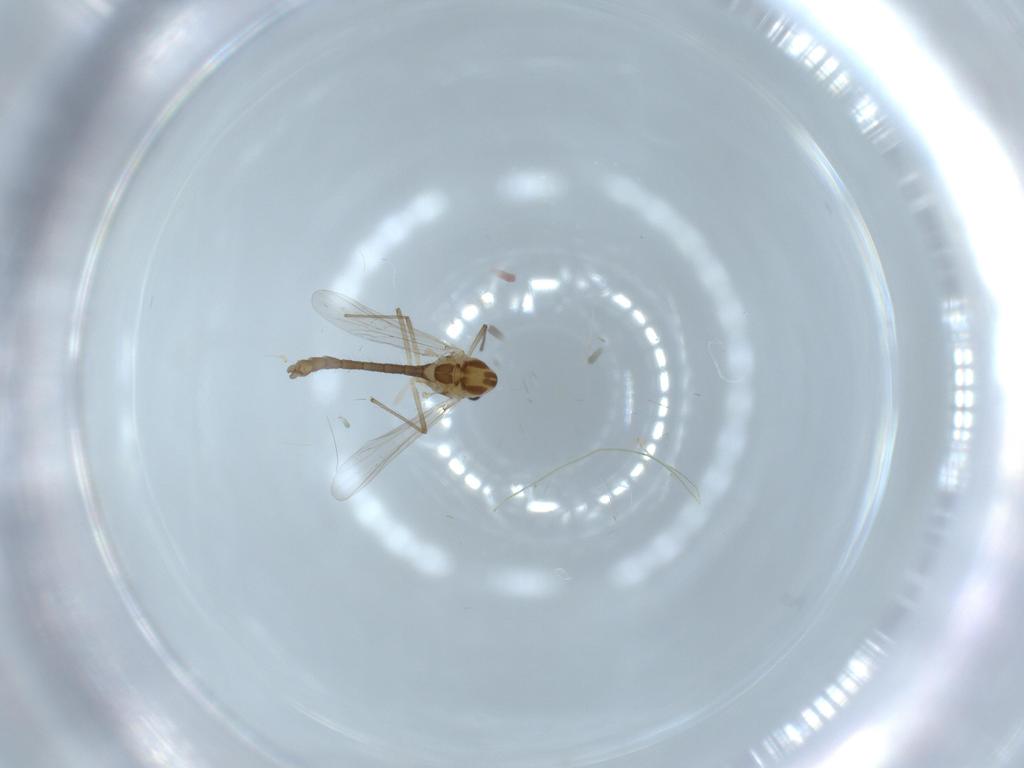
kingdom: Animalia
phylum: Arthropoda
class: Insecta
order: Diptera
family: Chironomidae
